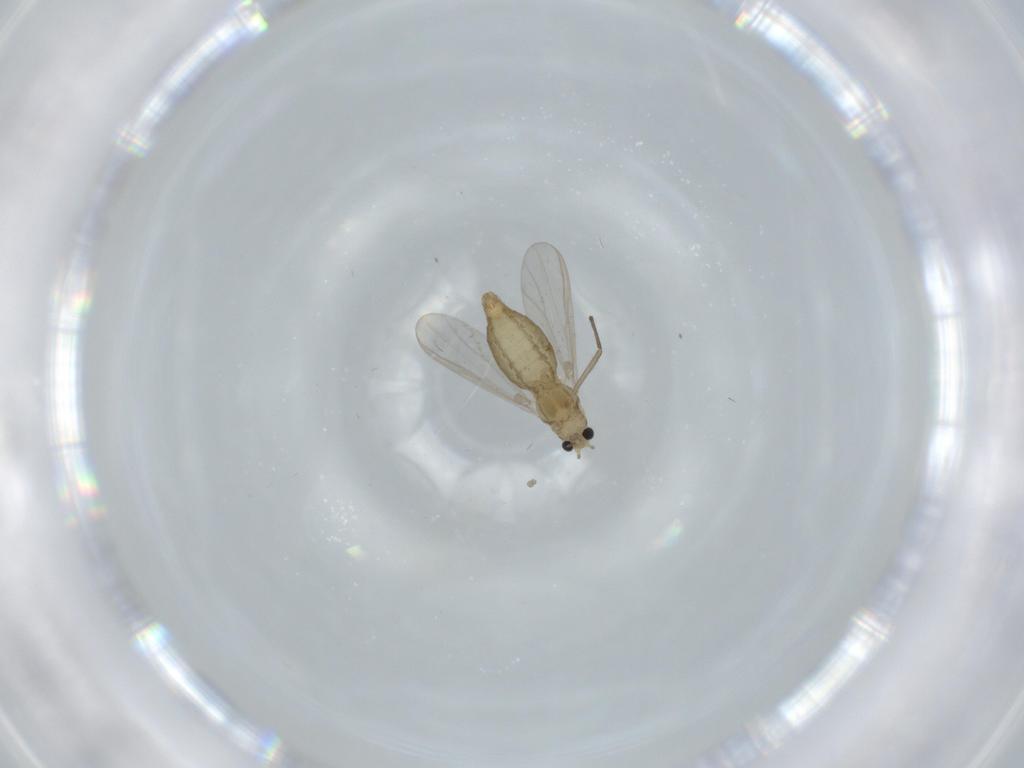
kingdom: Animalia
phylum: Arthropoda
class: Insecta
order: Diptera
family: Chironomidae
